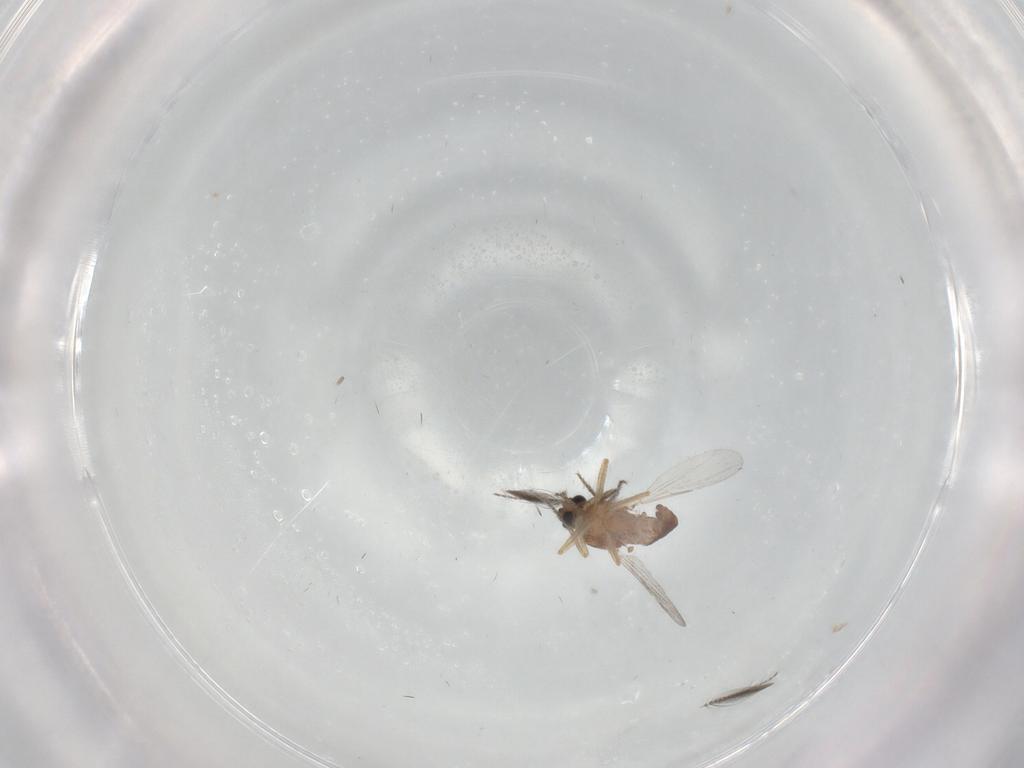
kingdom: Animalia
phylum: Arthropoda
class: Insecta
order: Diptera
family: Ceratopogonidae
